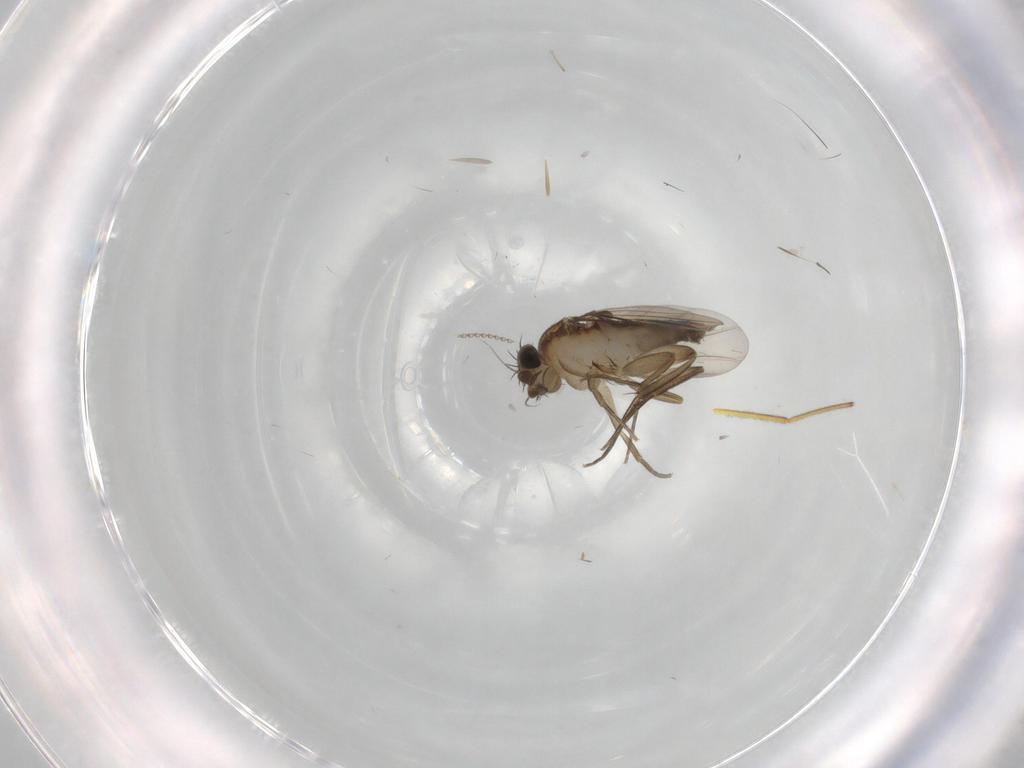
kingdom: Animalia
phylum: Arthropoda
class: Insecta
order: Diptera
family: Phoridae
